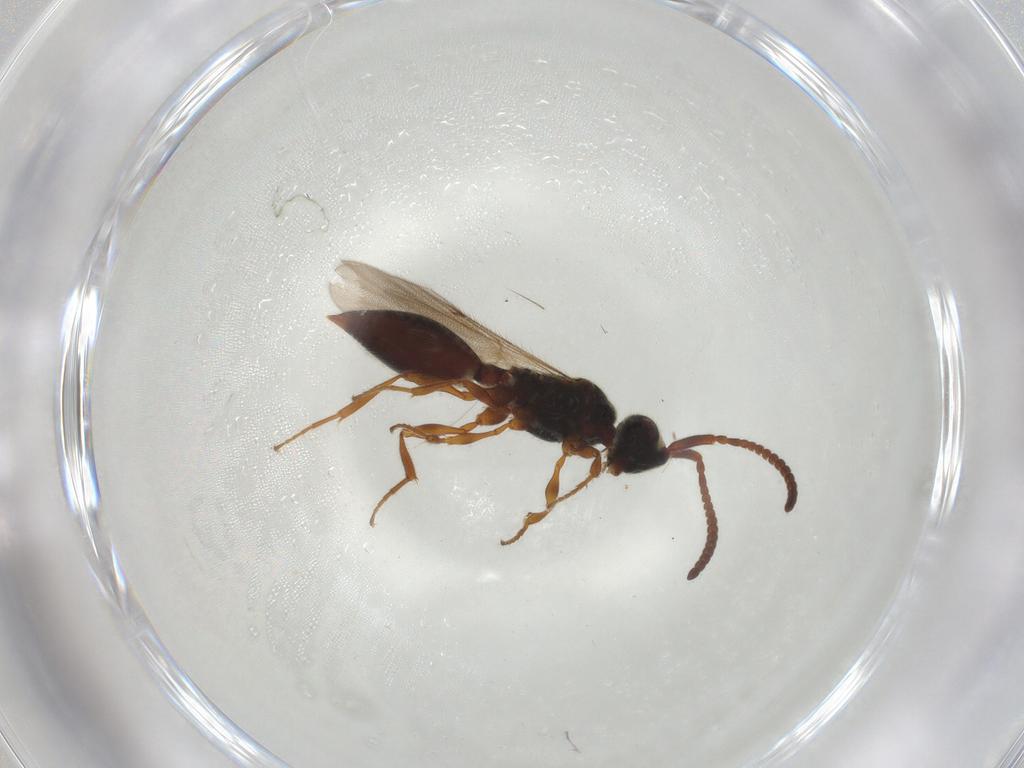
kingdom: Animalia
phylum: Arthropoda
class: Insecta
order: Hymenoptera
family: Diapriidae
